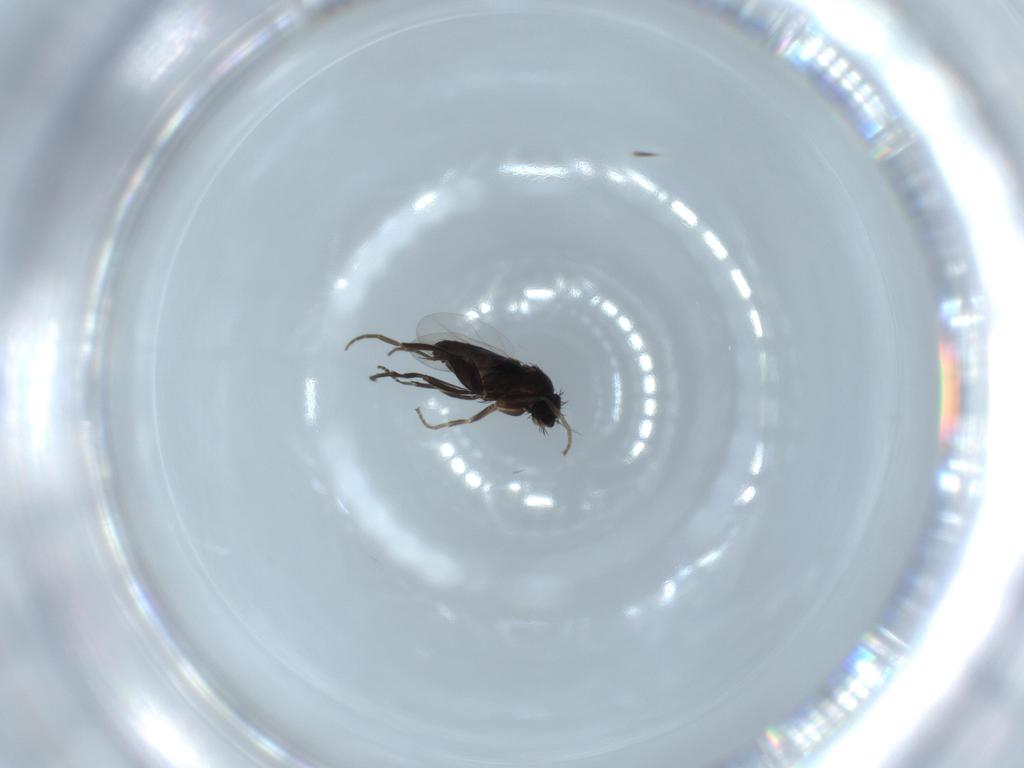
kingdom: Animalia
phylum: Arthropoda
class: Insecta
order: Diptera
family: Phoridae
